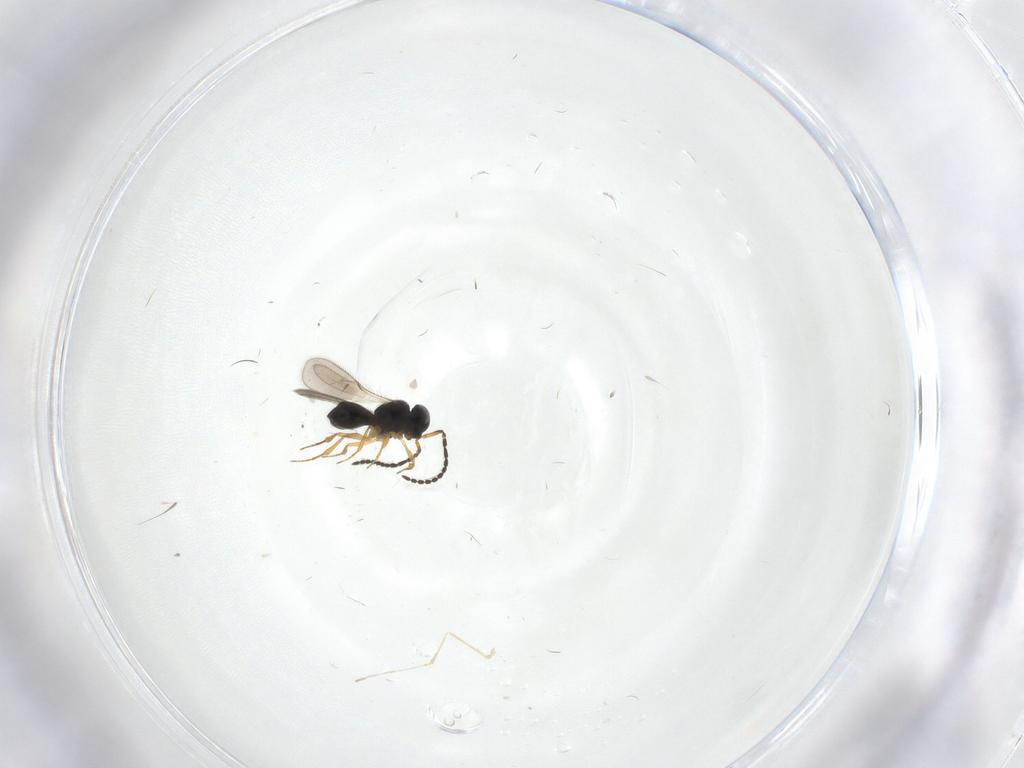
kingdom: Animalia
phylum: Arthropoda
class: Insecta
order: Hymenoptera
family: Scelionidae
